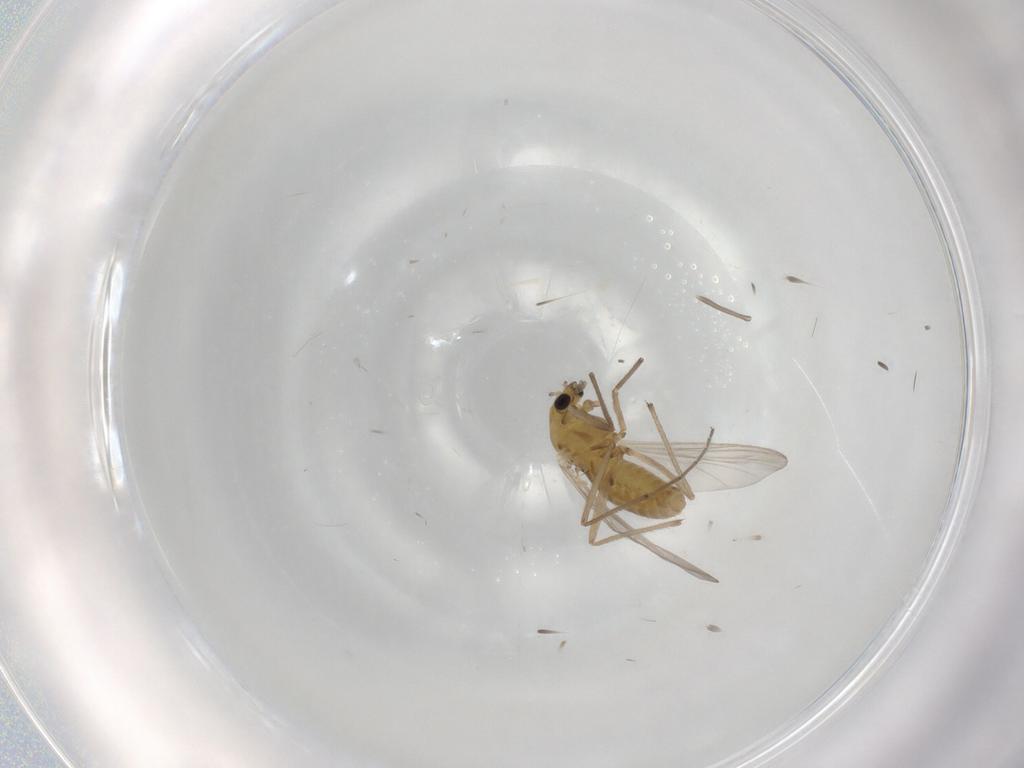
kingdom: Animalia
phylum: Arthropoda
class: Insecta
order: Diptera
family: Chironomidae
